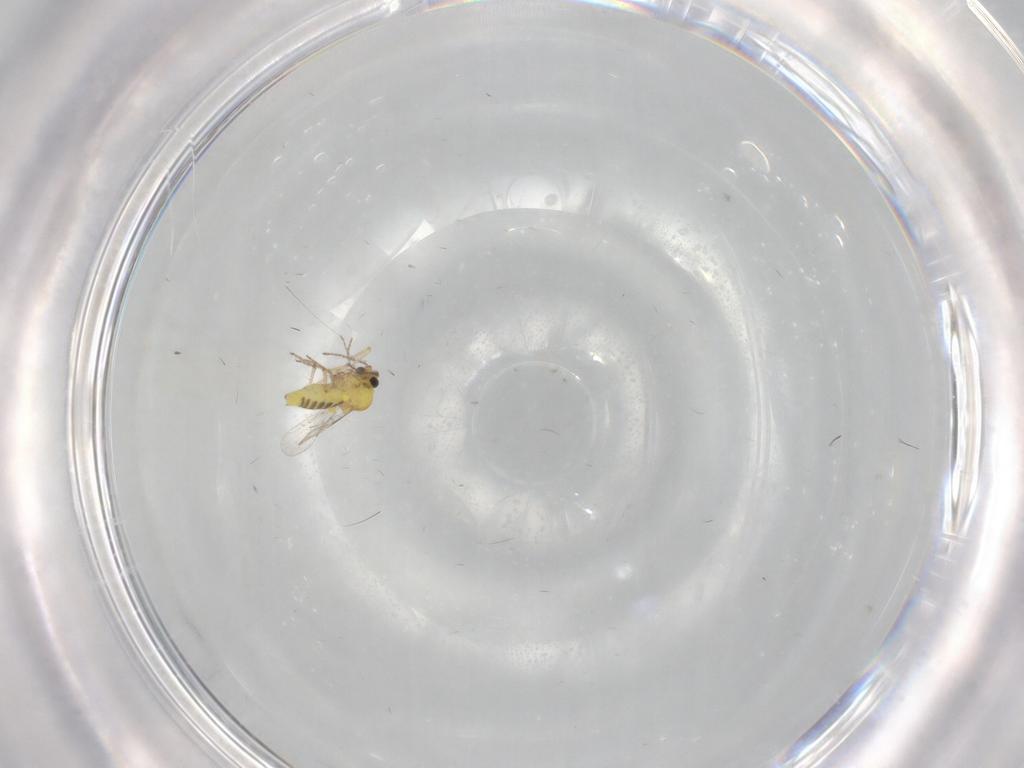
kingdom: Animalia
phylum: Arthropoda
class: Insecta
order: Diptera
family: Ceratopogonidae
